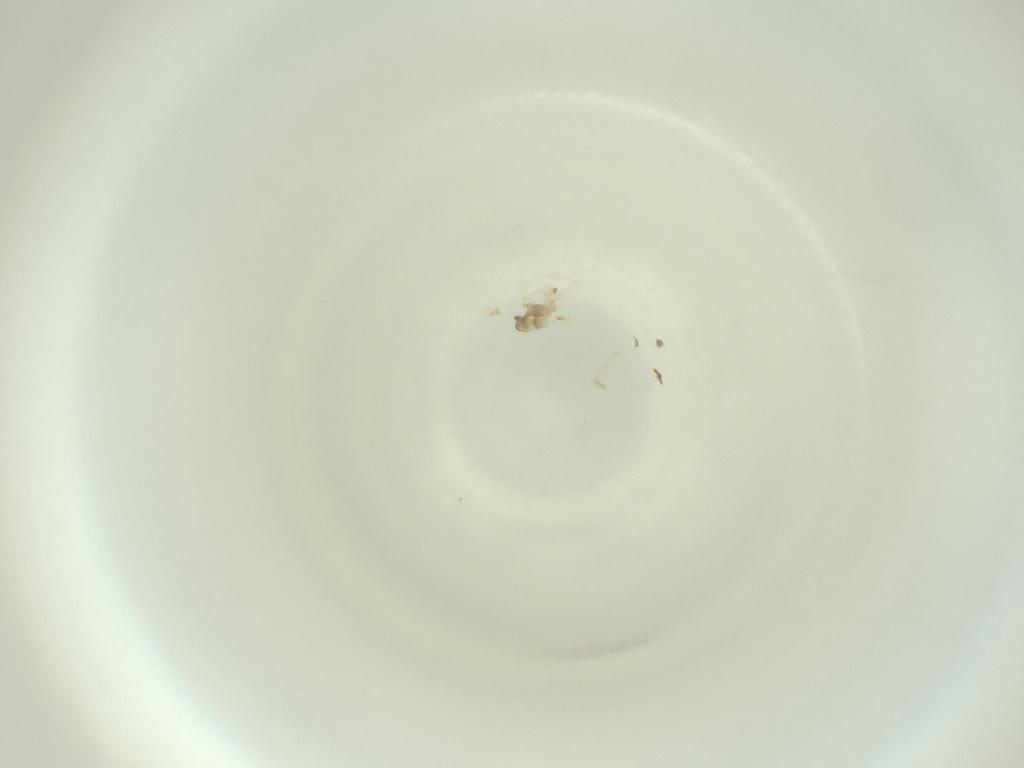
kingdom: Animalia
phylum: Arthropoda
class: Insecta
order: Diptera
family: Cecidomyiidae
